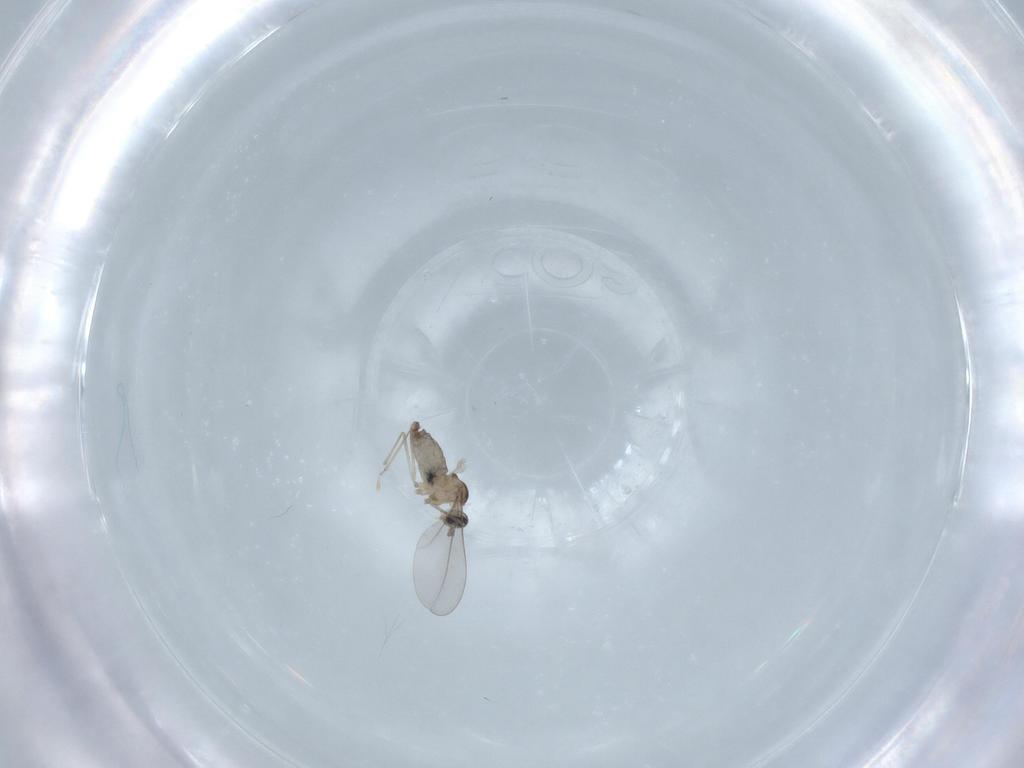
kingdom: Animalia
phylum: Arthropoda
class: Insecta
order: Diptera
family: Cecidomyiidae
